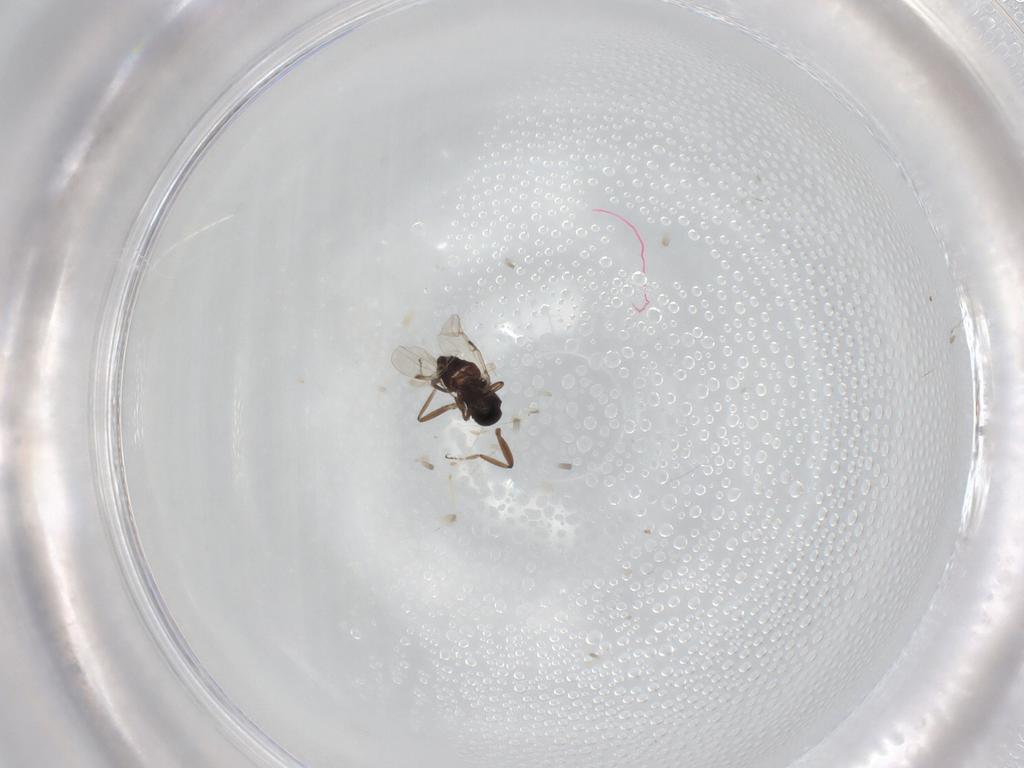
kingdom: Animalia
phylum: Arthropoda
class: Insecta
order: Diptera
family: Ceratopogonidae
